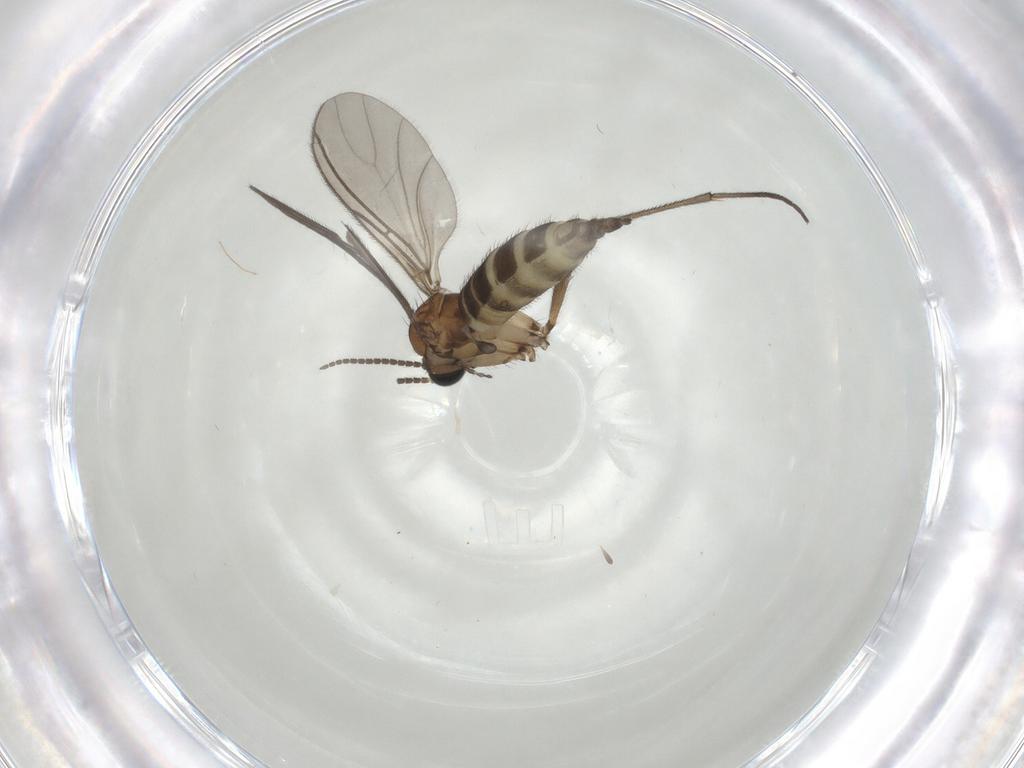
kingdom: Animalia
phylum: Arthropoda
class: Insecta
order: Diptera
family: Sciaridae
